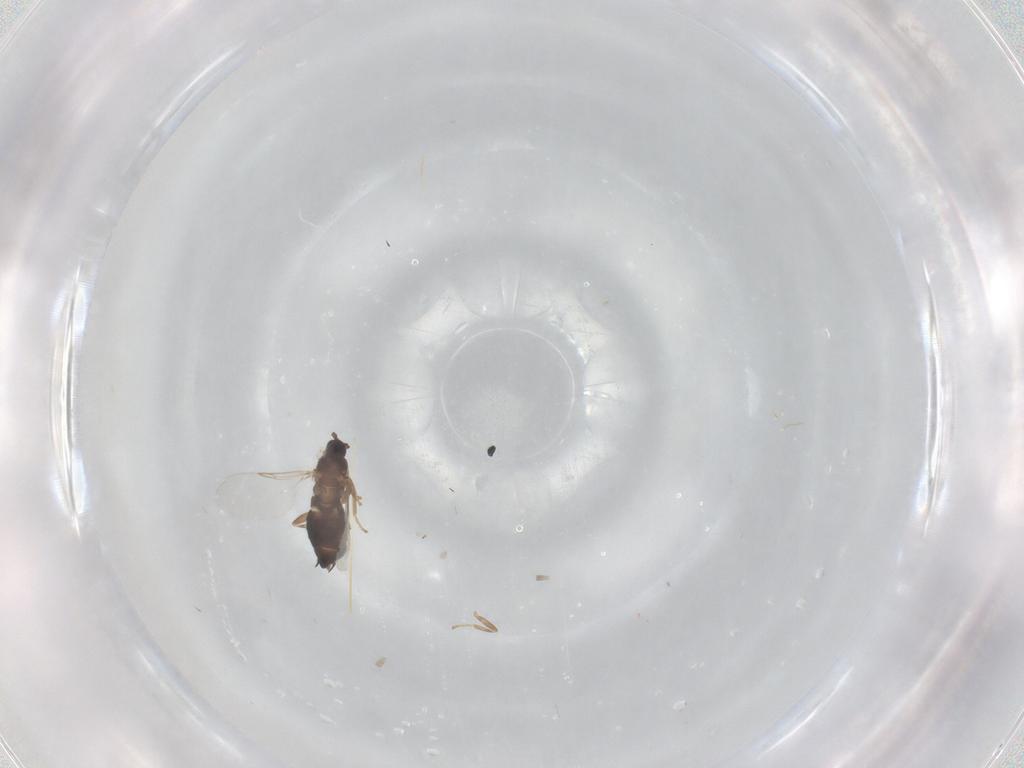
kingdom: Animalia
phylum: Arthropoda
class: Insecta
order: Diptera
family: Scatopsidae
